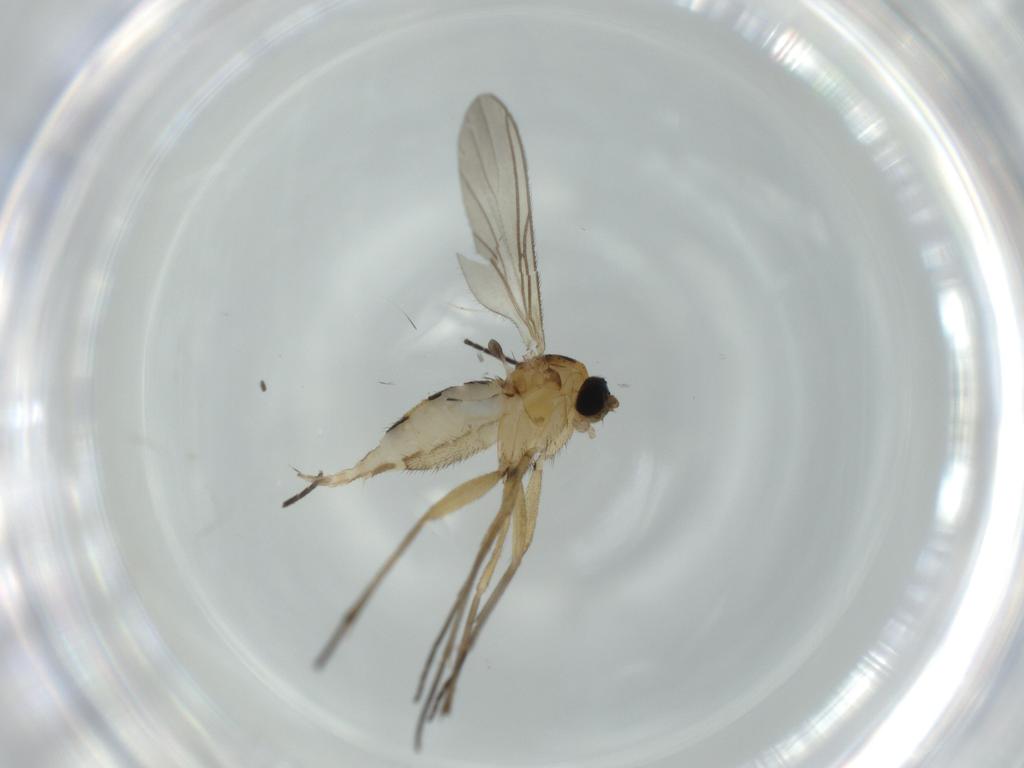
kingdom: Animalia
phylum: Arthropoda
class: Insecta
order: Diptera
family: Sciaridae
